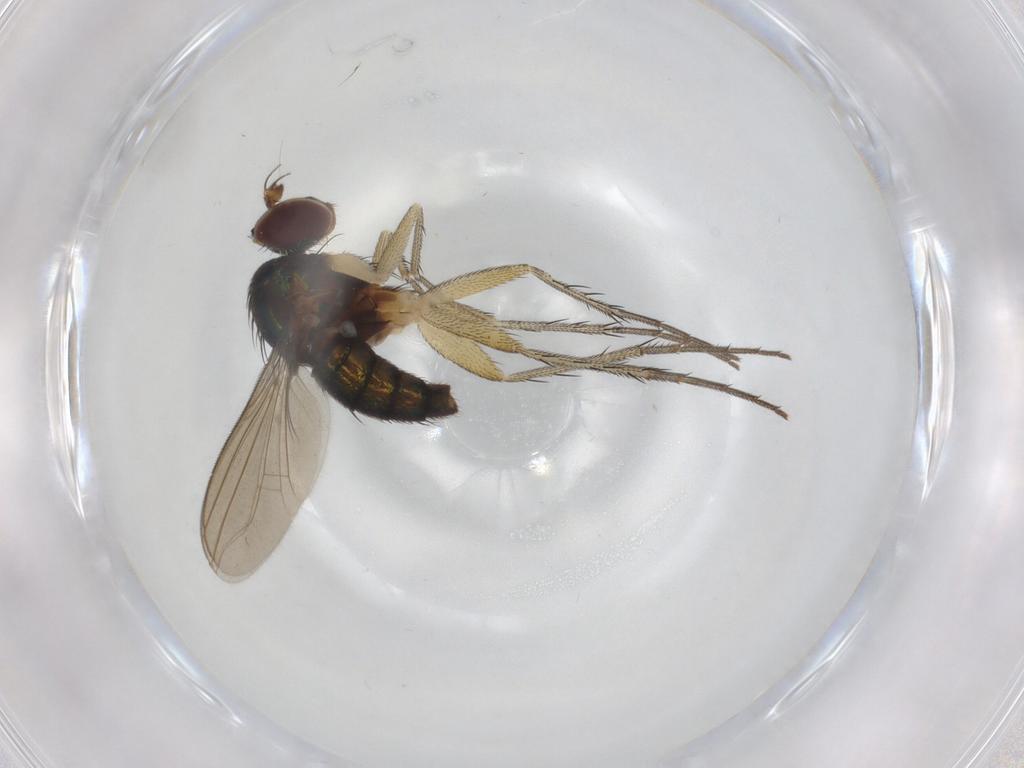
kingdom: Animalia
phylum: Arthropoda
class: Insecta
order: Diptera
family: Dolichopodidae
